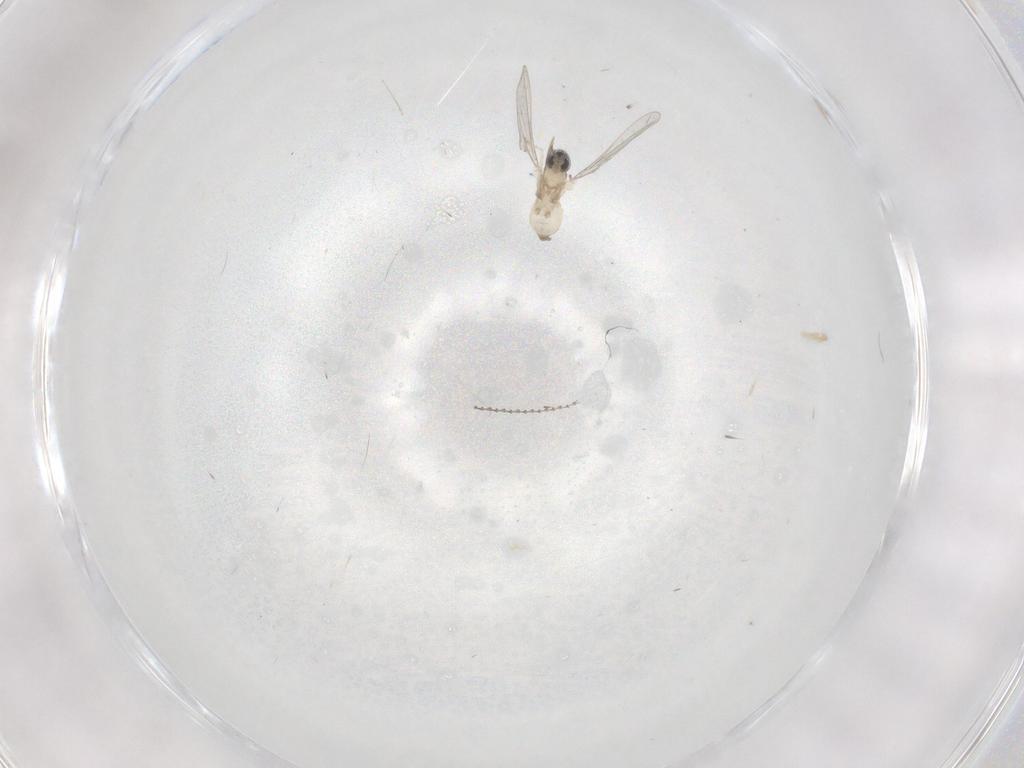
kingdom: Animalia
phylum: Arthropoda
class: Insecta
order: Diptera
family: Cecidomyiidae
